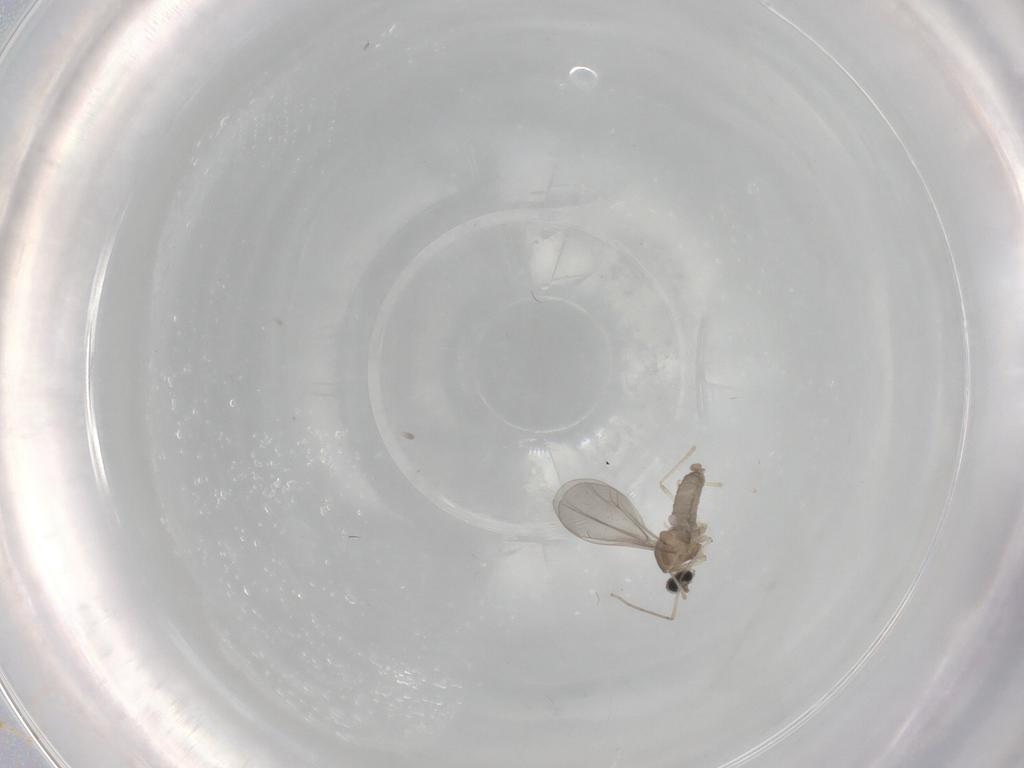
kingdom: Animalia
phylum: Arthropoda
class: Insecta
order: Diptera
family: Cecidomyiidae
